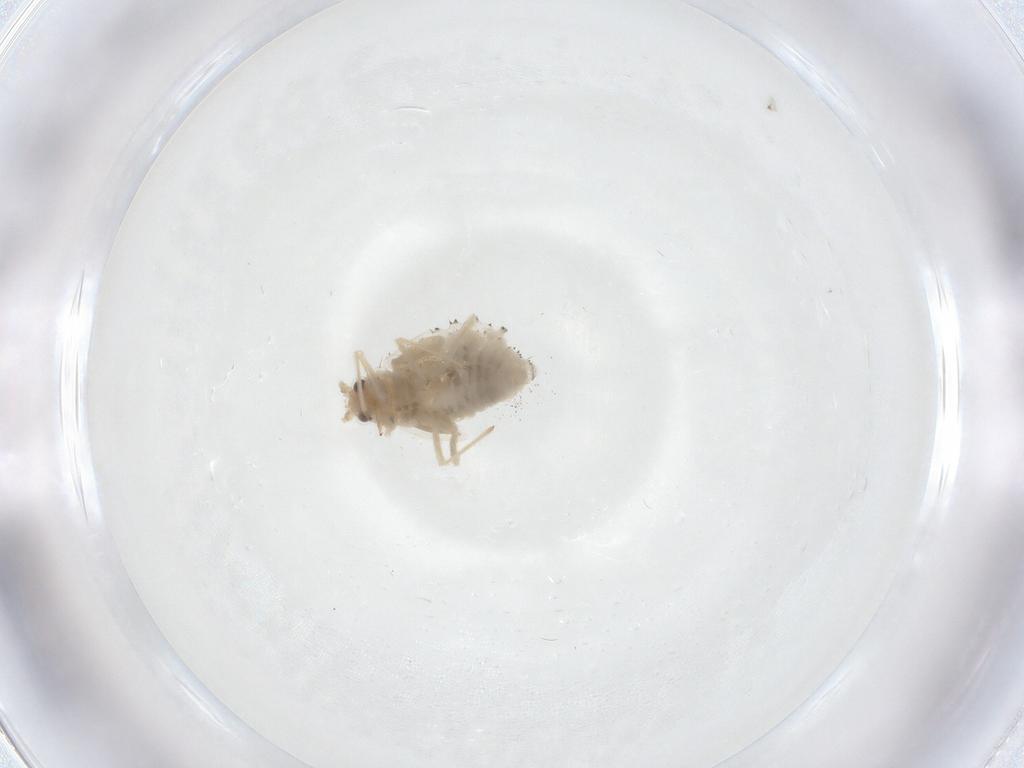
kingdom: Animalia
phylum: Arthropoda
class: Insecta
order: Hemiptera
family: Aphididae
